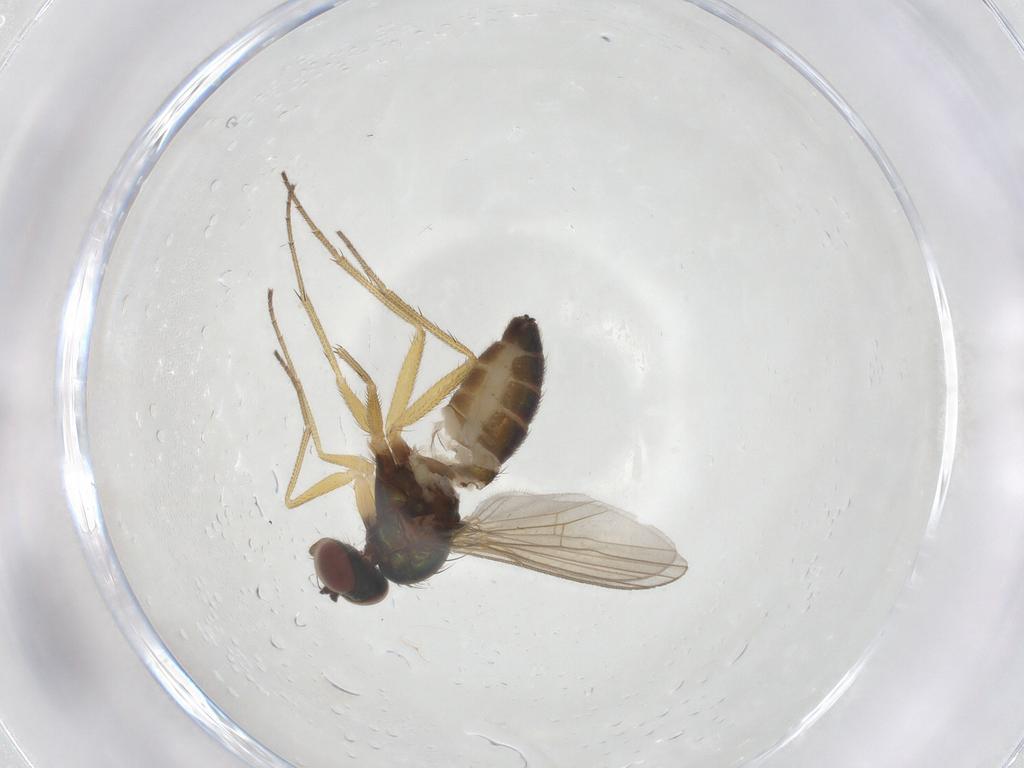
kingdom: Animalia
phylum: Arthropoda
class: Insecta
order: Diptera
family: Dolichopodidae
